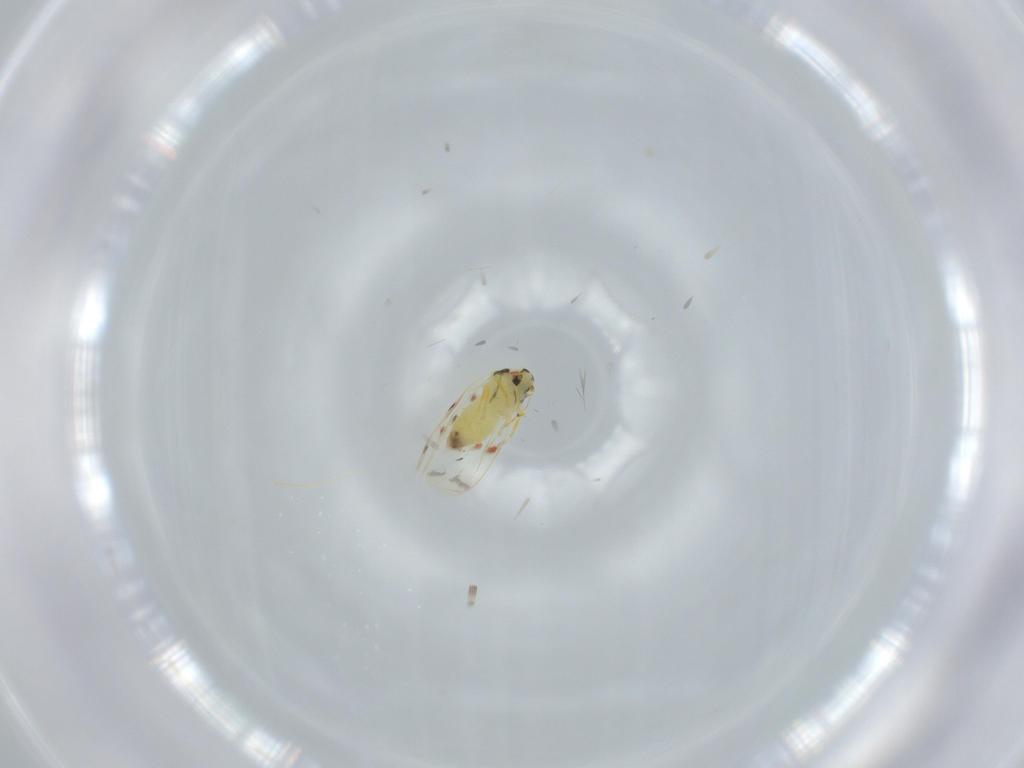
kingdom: Animalia
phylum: Arthropoda
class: Insecta
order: Hemiptera
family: Aleyrodidae
